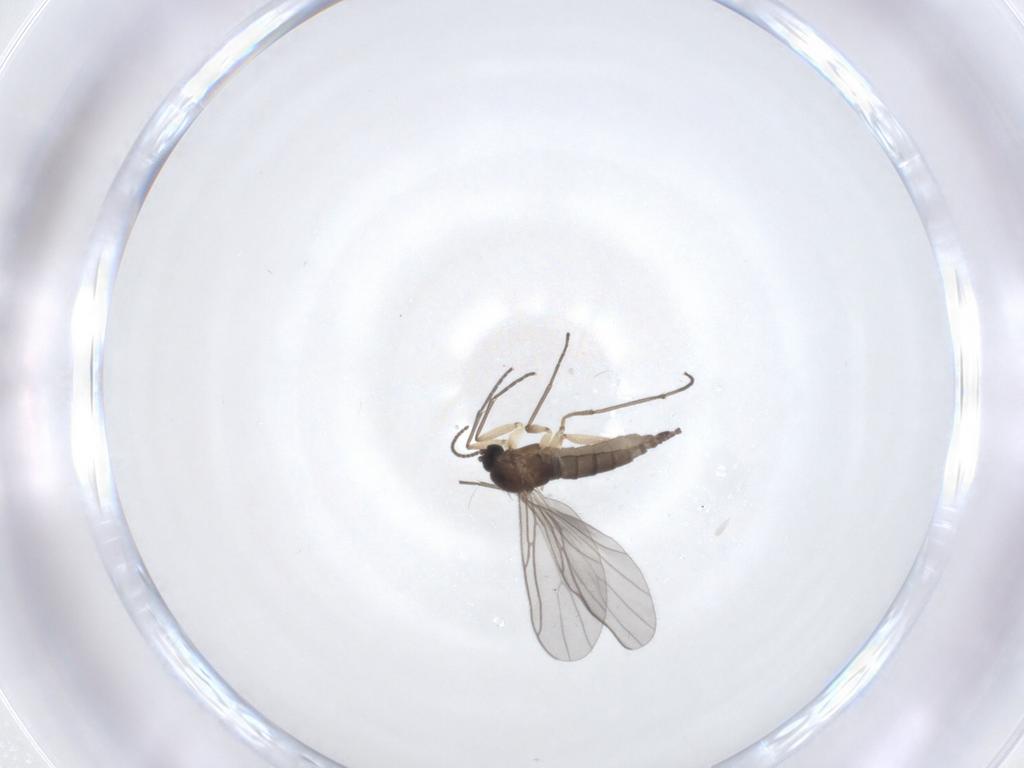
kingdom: Animalia
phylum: Arthropoda
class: Insecta
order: Diptera
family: Sciaridae
